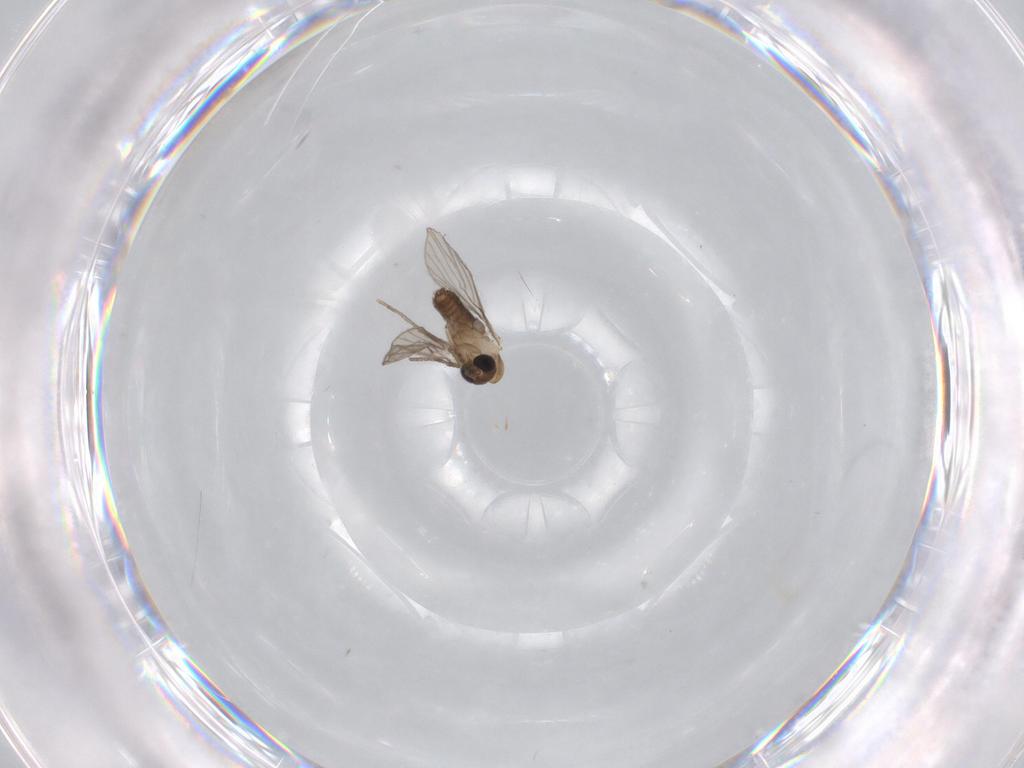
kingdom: Animalia
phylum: Arthropoda
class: Insecta
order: Diptera
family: Psychodidae
